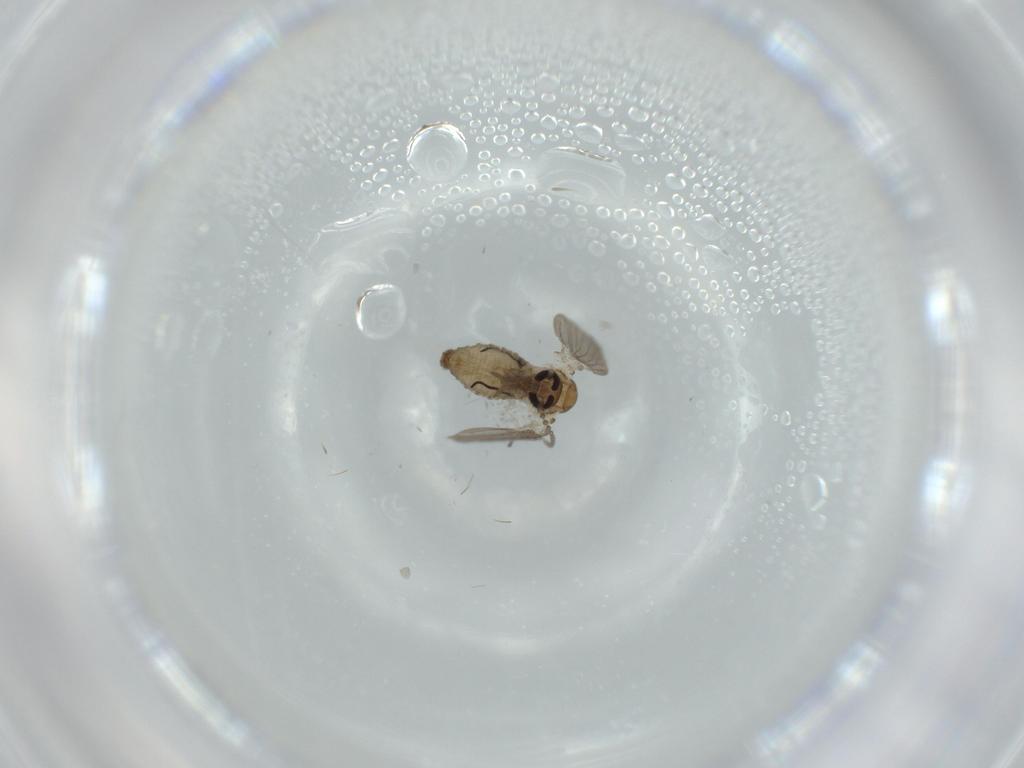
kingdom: Animalia
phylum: Arthropoda
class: Insecta
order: Diptera
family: Psychodidae
